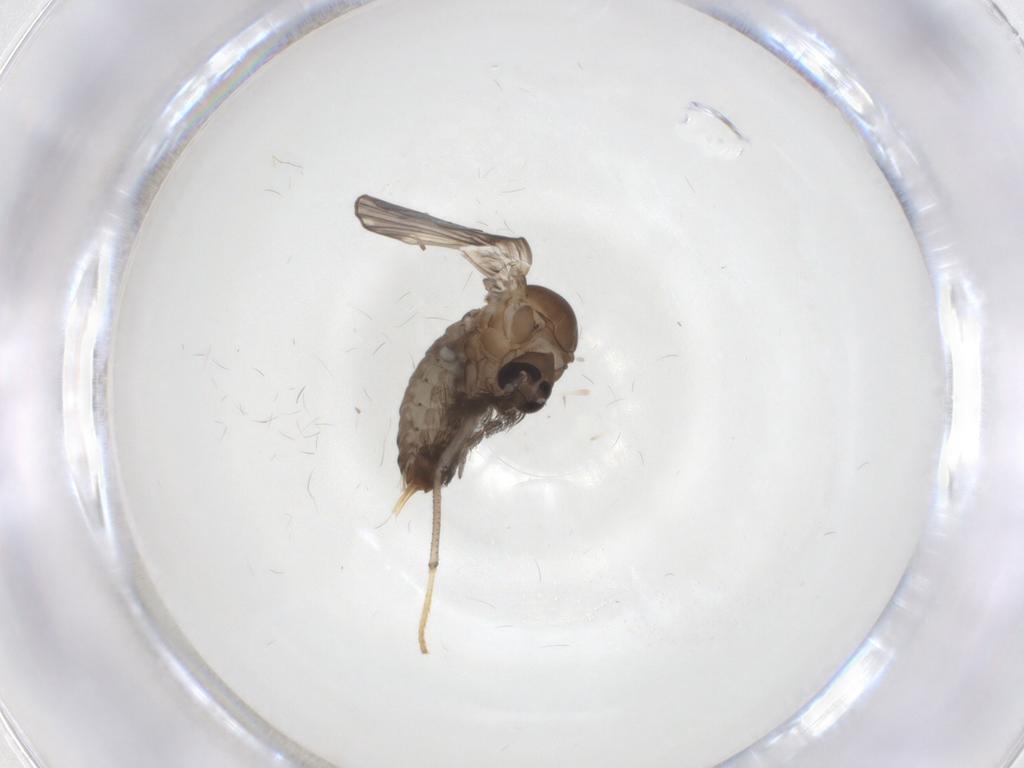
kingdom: Animalia
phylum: Arthropoda
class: Insecta
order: Diptera
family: Psychodidae
